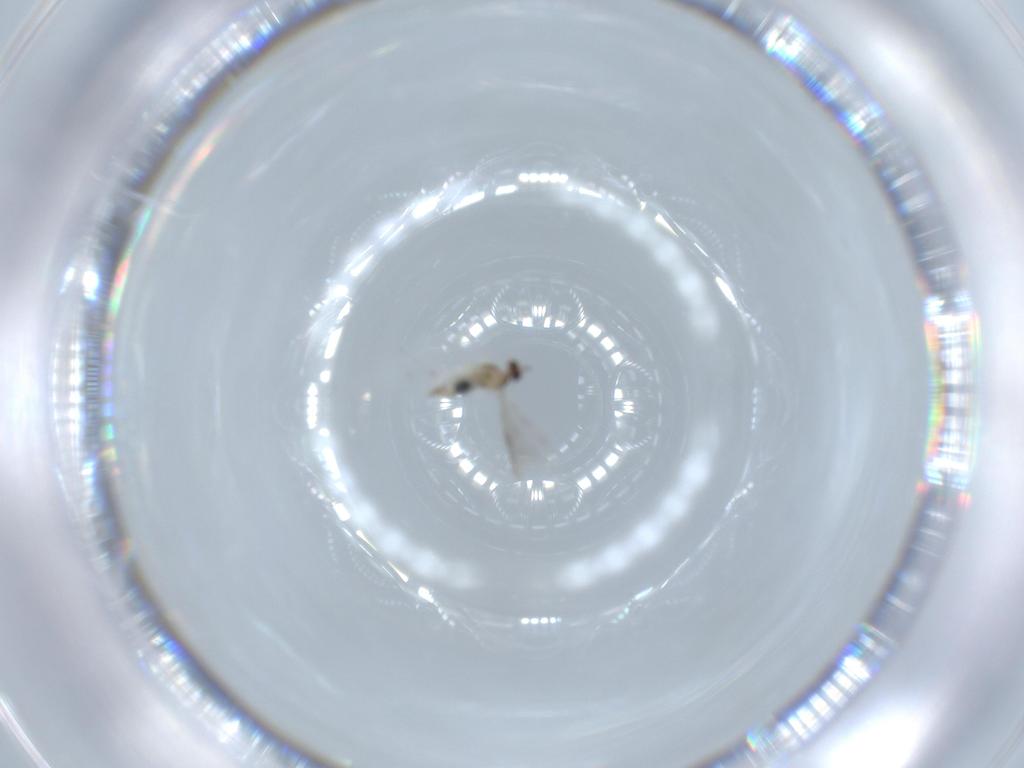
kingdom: Animalia
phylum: Arthropoda
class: Insecta
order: Diptera
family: Cecidomyiidae
